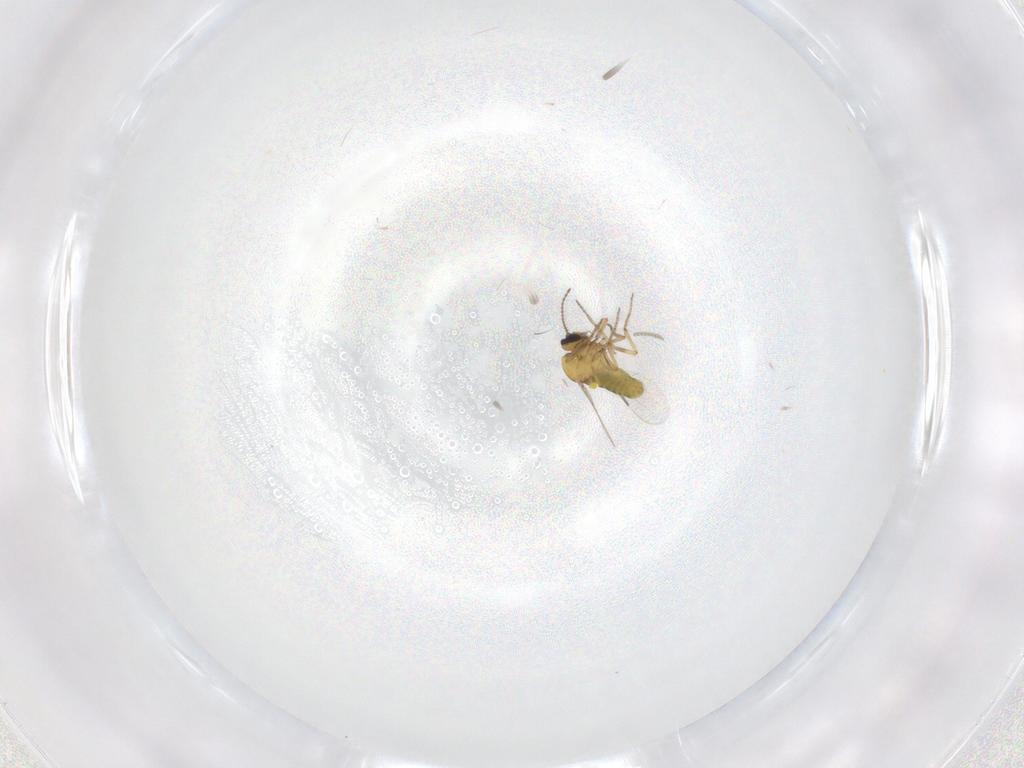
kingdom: Animalia
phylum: Arthropoda
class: Insecta
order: Diptera
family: Cecidomyiidae
